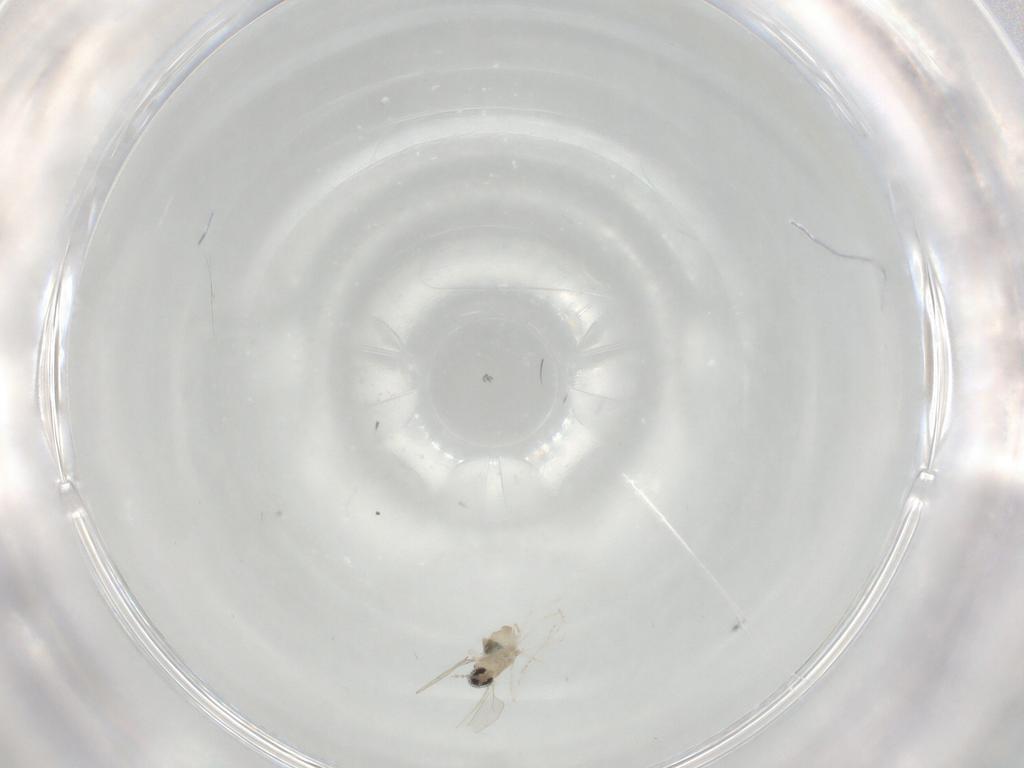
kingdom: Animalia
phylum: Arthropoda
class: Insecta
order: Diptera
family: Cecidomyiidae
